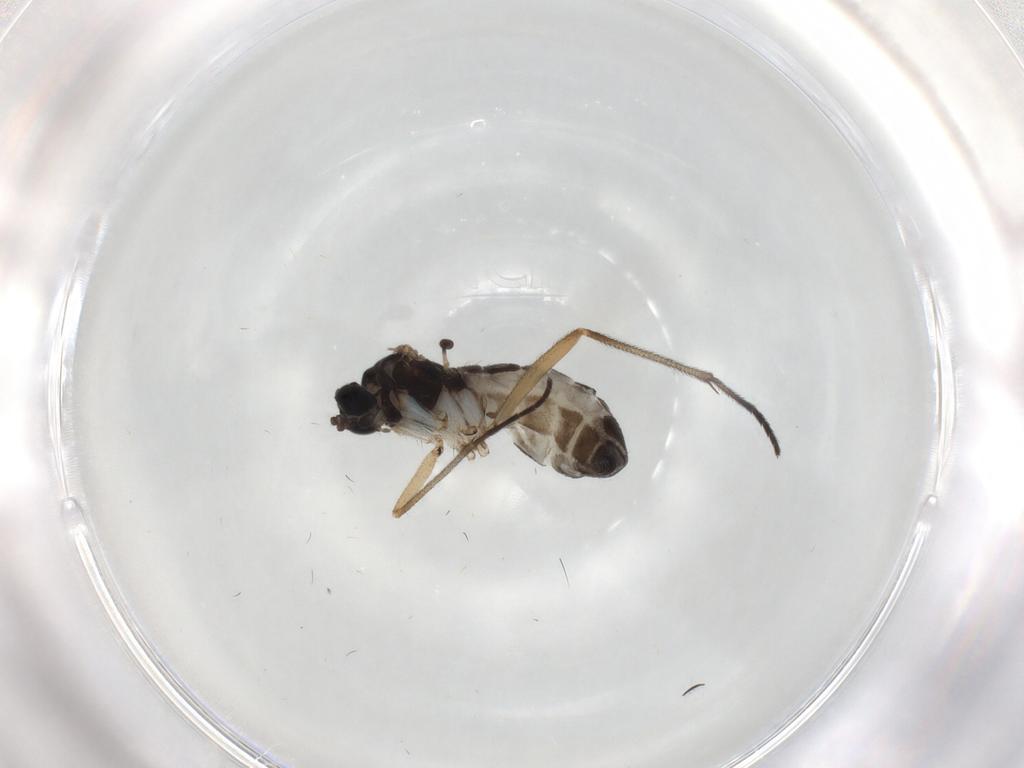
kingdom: Animalia
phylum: Arthropoda
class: Insecta
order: Diptera
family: Sciaridae
